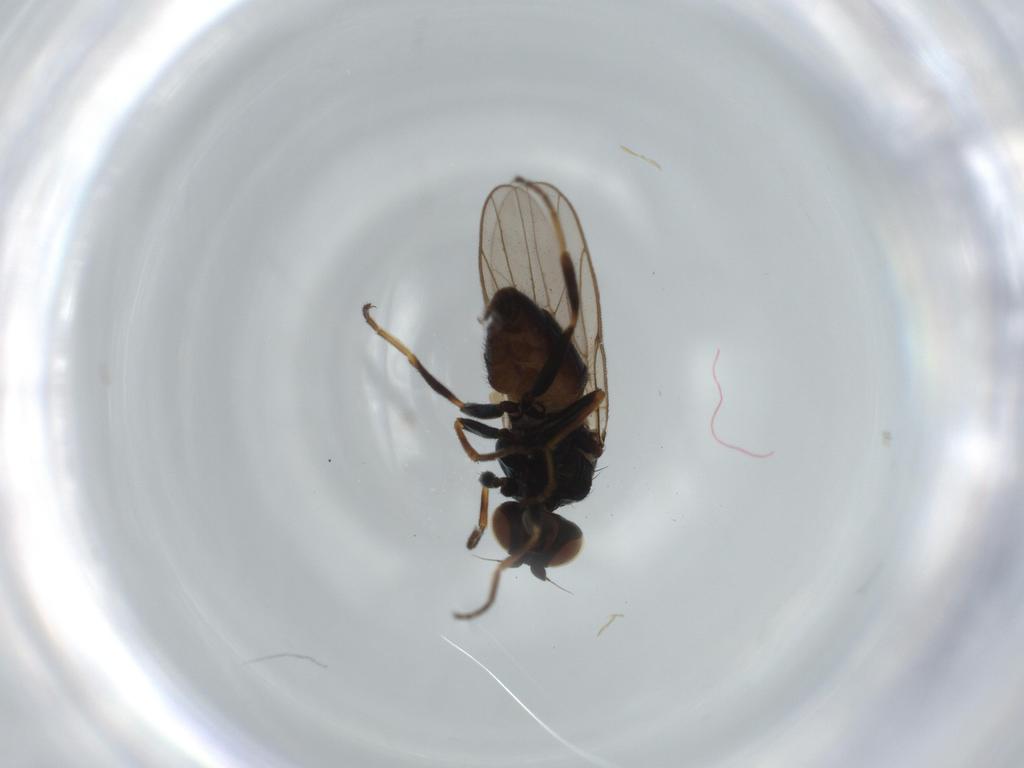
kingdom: Animalia
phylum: Arthropoda
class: Insecta
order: Diptera
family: Chloropidae
